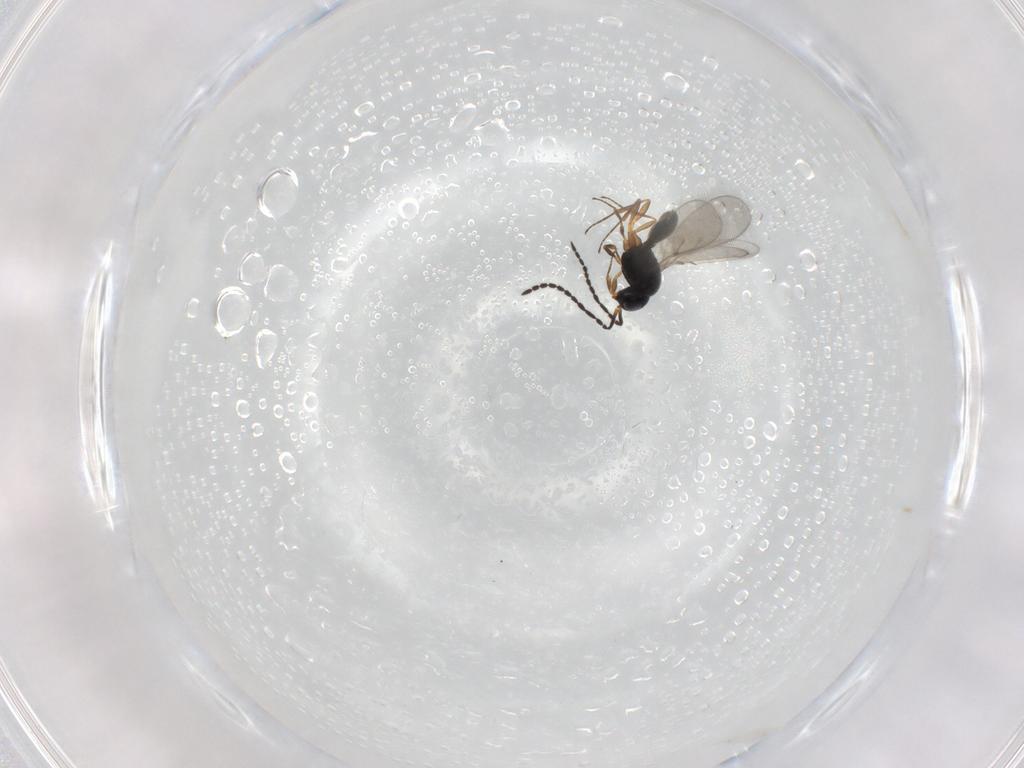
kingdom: Animalia
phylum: Arthropoda
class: Insecta
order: Hymenoptera
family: Scelionidae
